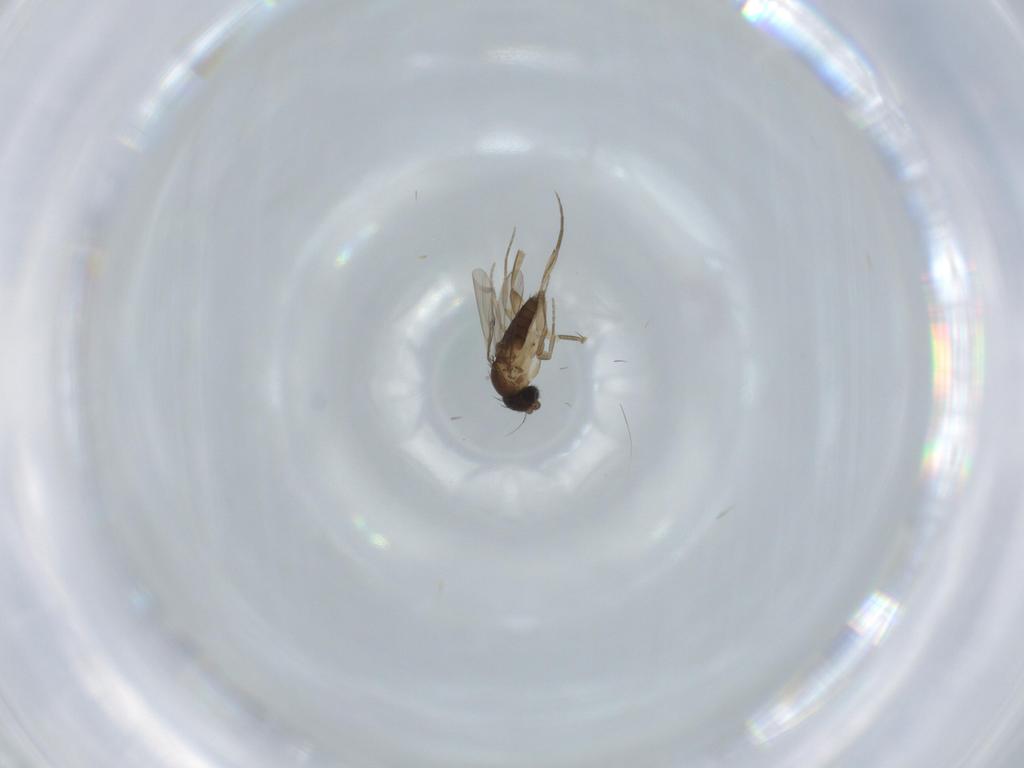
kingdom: Animalia
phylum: Arthropoda
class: Insecta
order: Diptera
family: Phoridae
